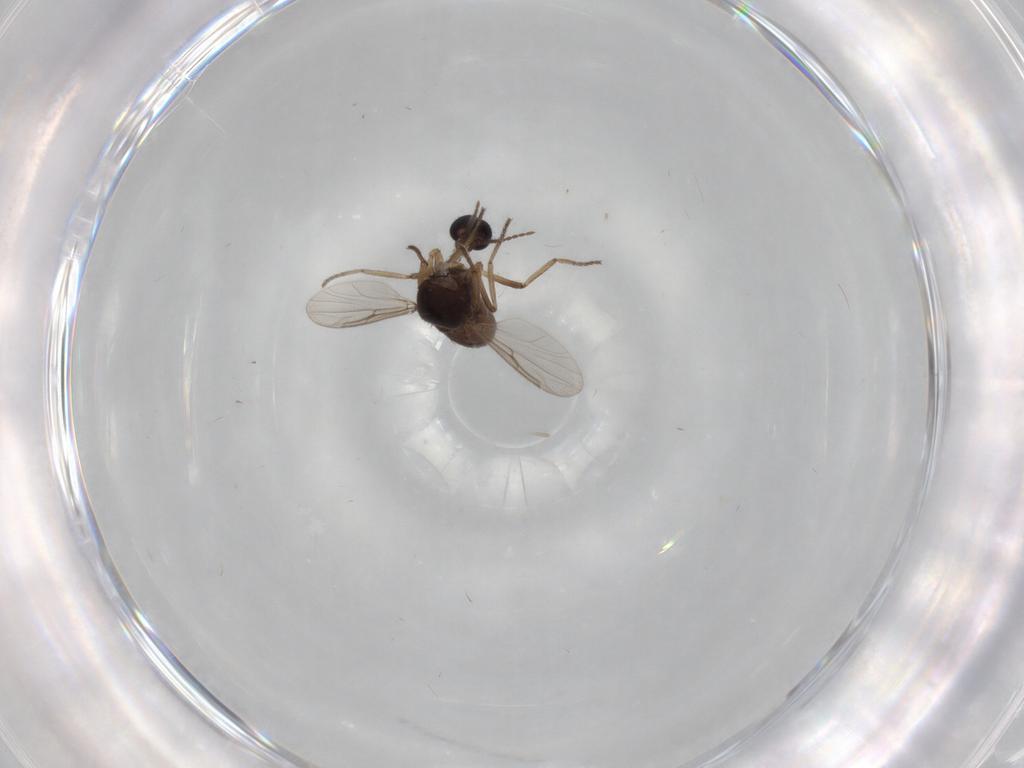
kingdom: Animalia
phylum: Arthropoda
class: Insecta
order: Diptera
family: Ceratopogonidae
